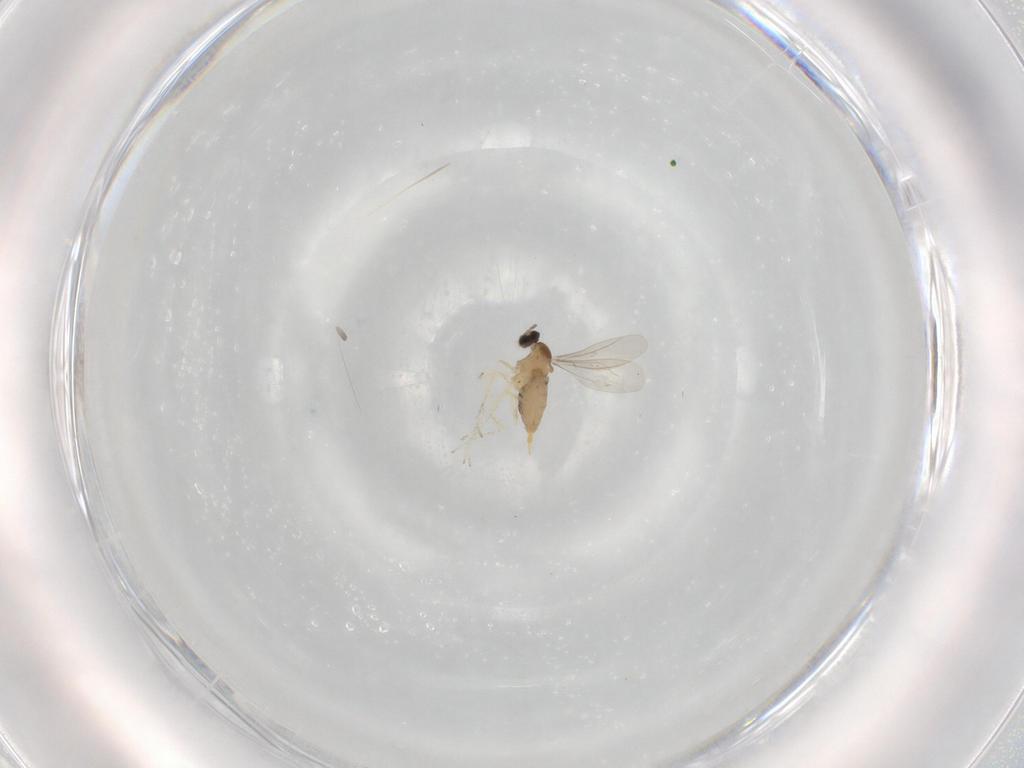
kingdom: Animalia
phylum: Arthropoda
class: Insecta
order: Diptera
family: Cecidomyiidae
